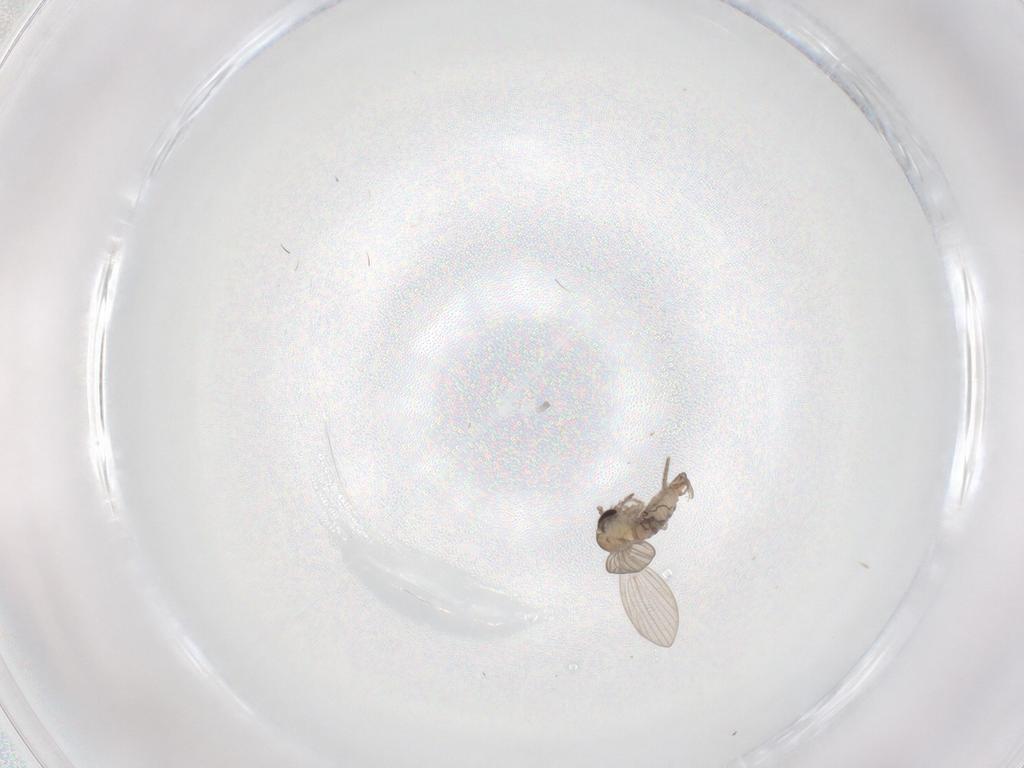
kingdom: Animalia
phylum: Arthropoda
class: Insecta
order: Diptera
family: Psychodidae
